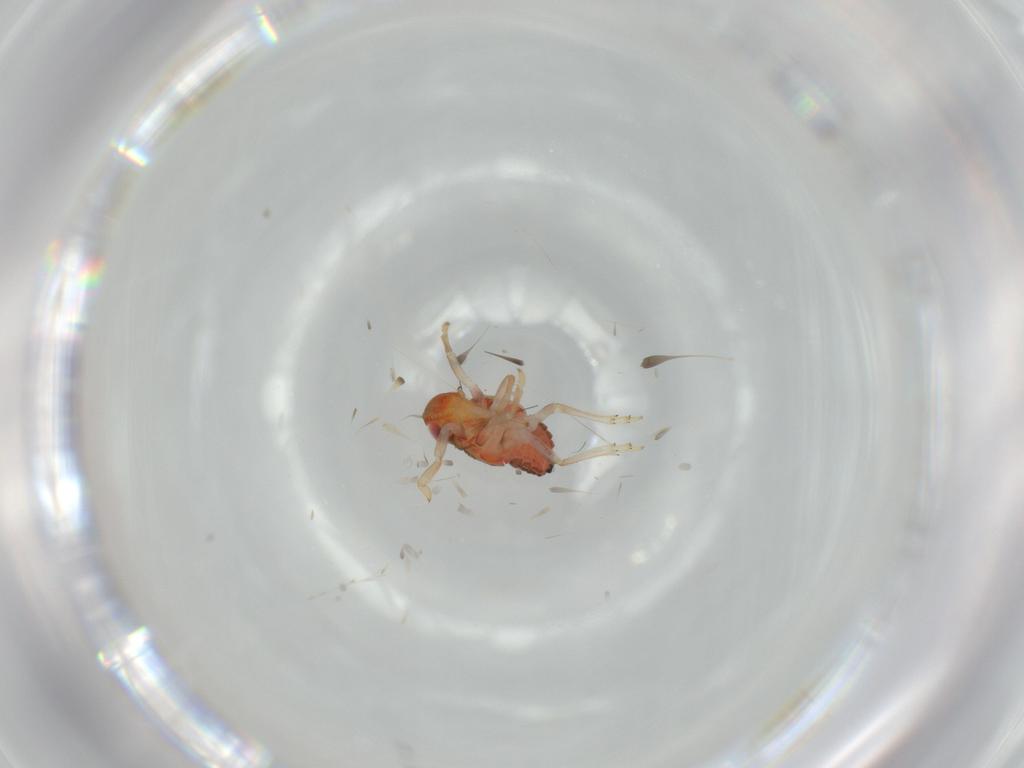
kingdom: Animalia
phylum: Arthropoda
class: Insecta
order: Hemiptera
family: Issidae
